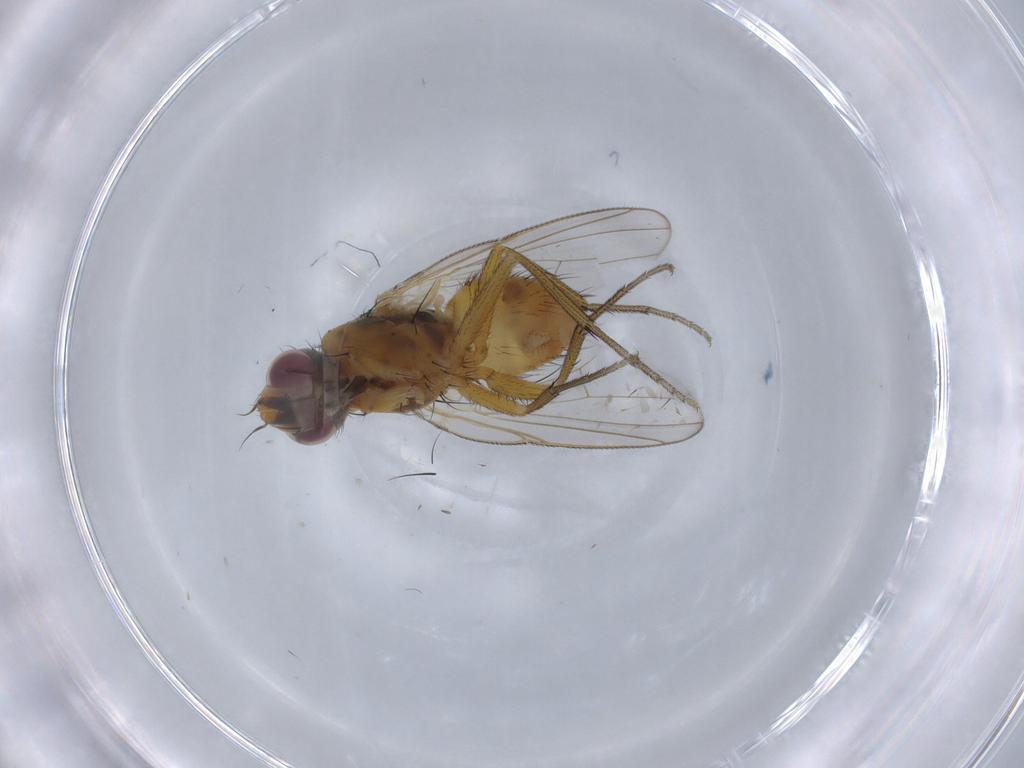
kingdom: Animalia
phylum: Arthropoda
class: Insecta
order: Diptera
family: Muscidae
